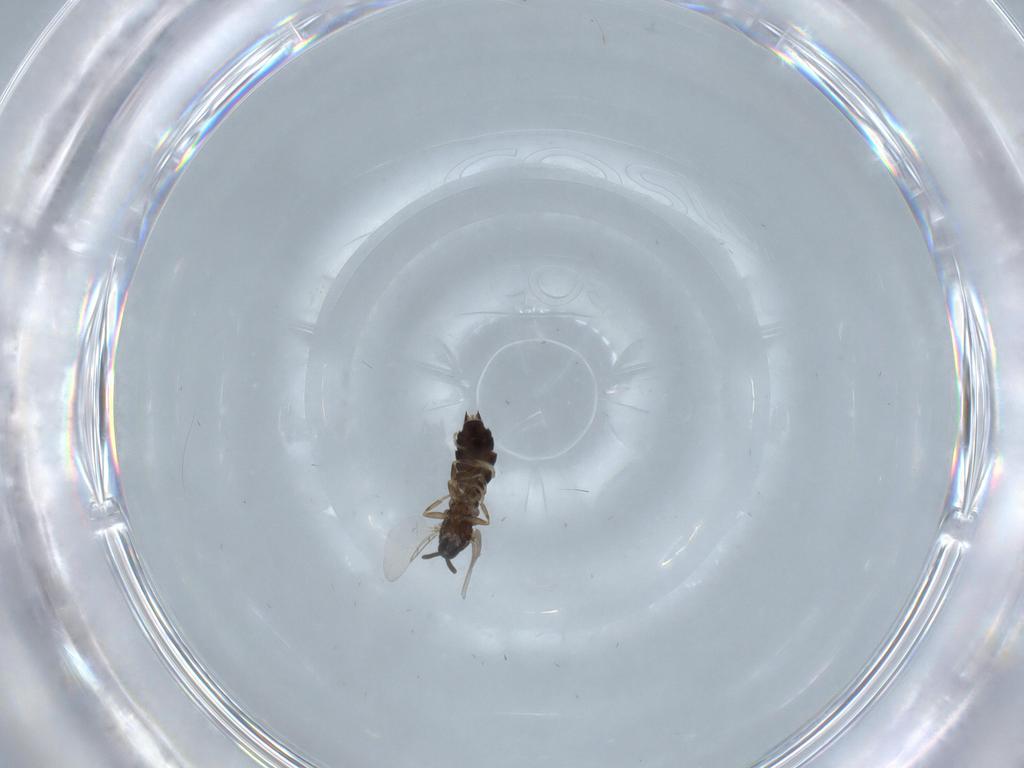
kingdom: Animalia
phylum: Arthropoda
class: Insecta
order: Diptera
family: Scatopsidae
